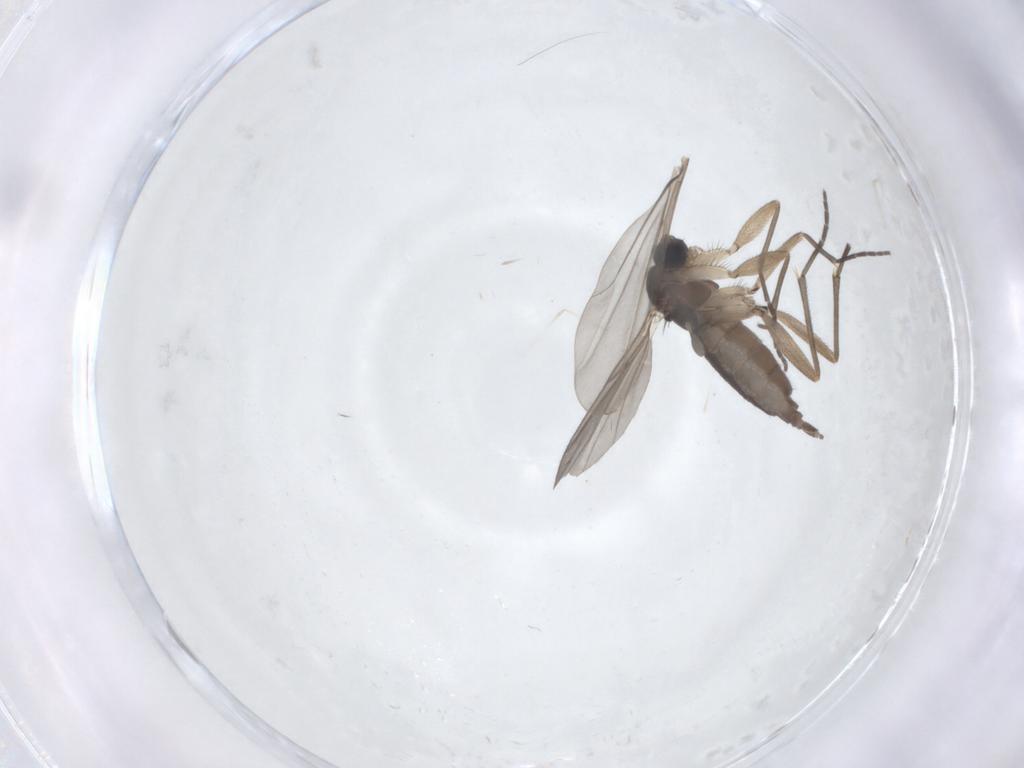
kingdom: Animalia
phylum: Arthropoda
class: Insecta
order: Diptera
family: Sciaridae
